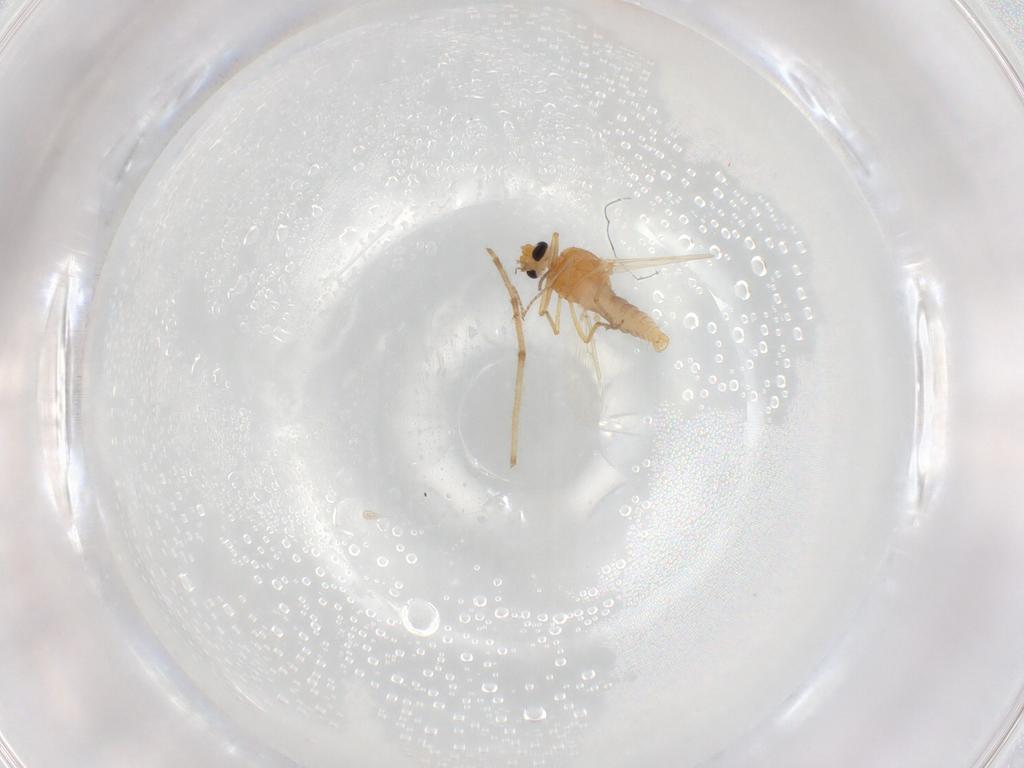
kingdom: Animalia
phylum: Arthropoda
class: Insecta
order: Diptera
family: Ceratopogonidae
